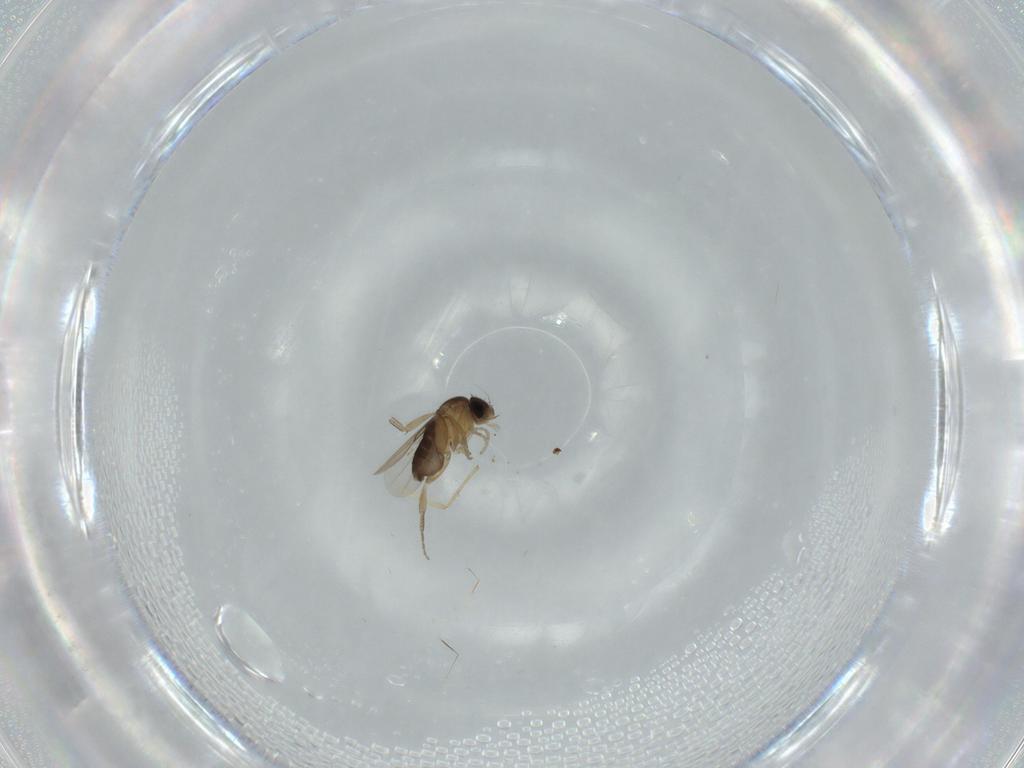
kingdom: Animalia
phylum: Arthropoda
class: Insecta
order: Diptera
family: Phoridae
